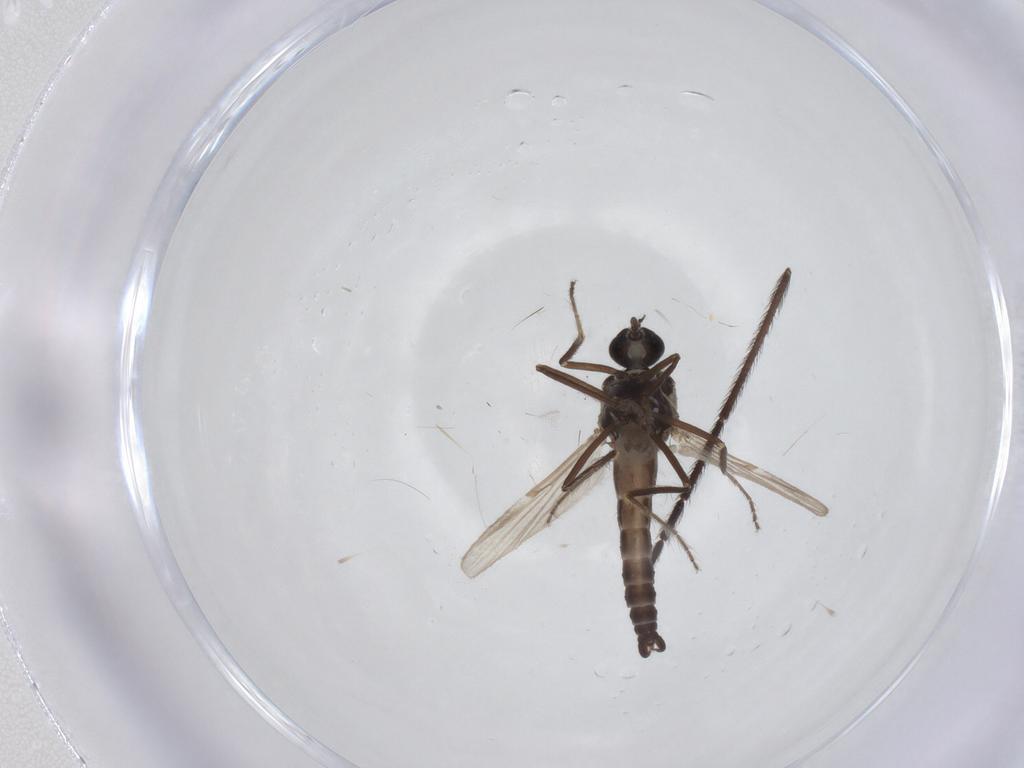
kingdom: Animalia
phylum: Arthropoda
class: Insecta
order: Diptera
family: Ceratopogonidae
